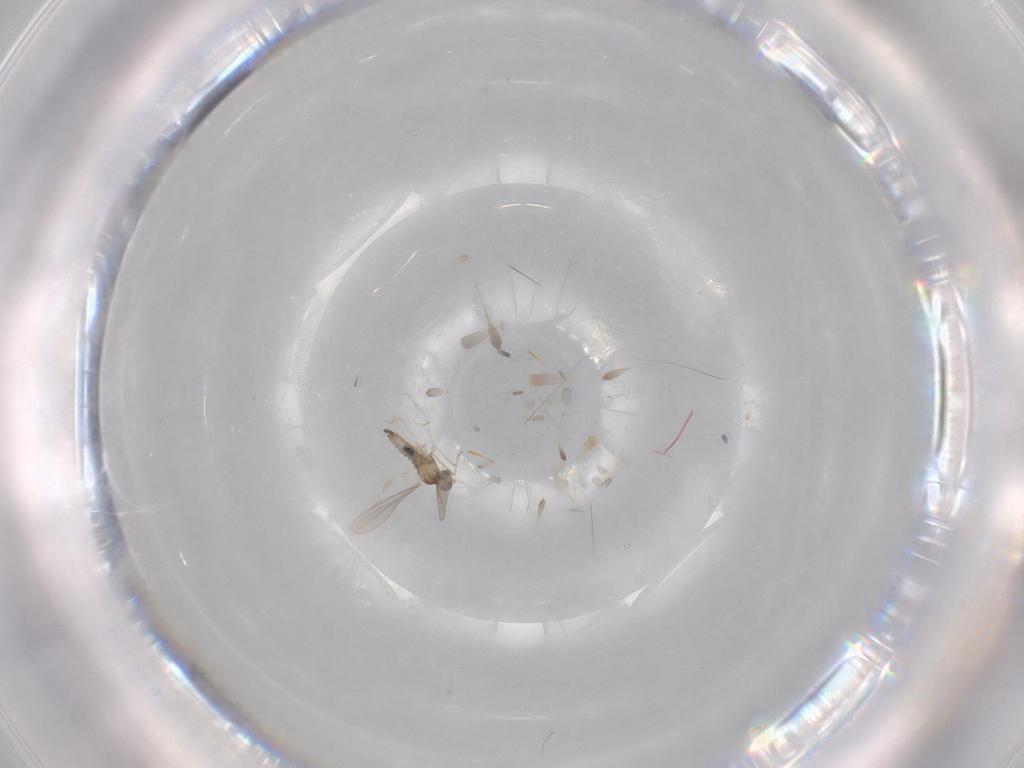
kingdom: Animalia
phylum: Arthropoda
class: Insecta
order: Diptera
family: Cecidomyiidae
